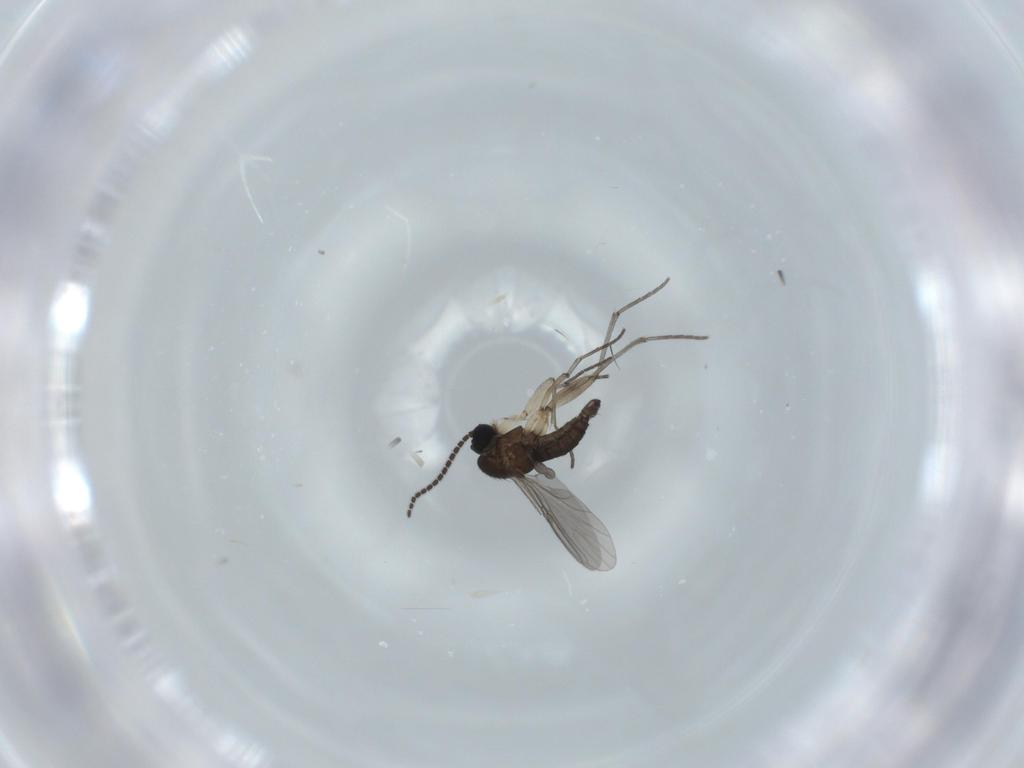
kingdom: Animalia
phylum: Arthropoda
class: Insecta
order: Diptera
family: Sciaridae
